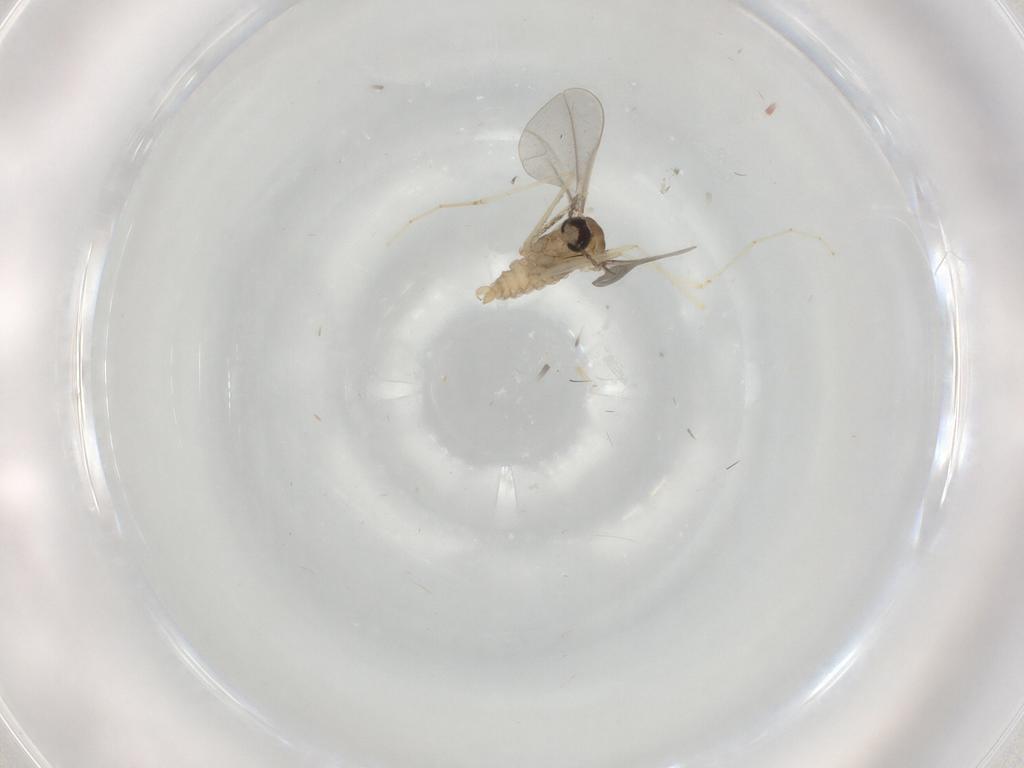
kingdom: Animalia
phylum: Arthropoda
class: Insecta
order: Diptera
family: Cecidomyiidae
